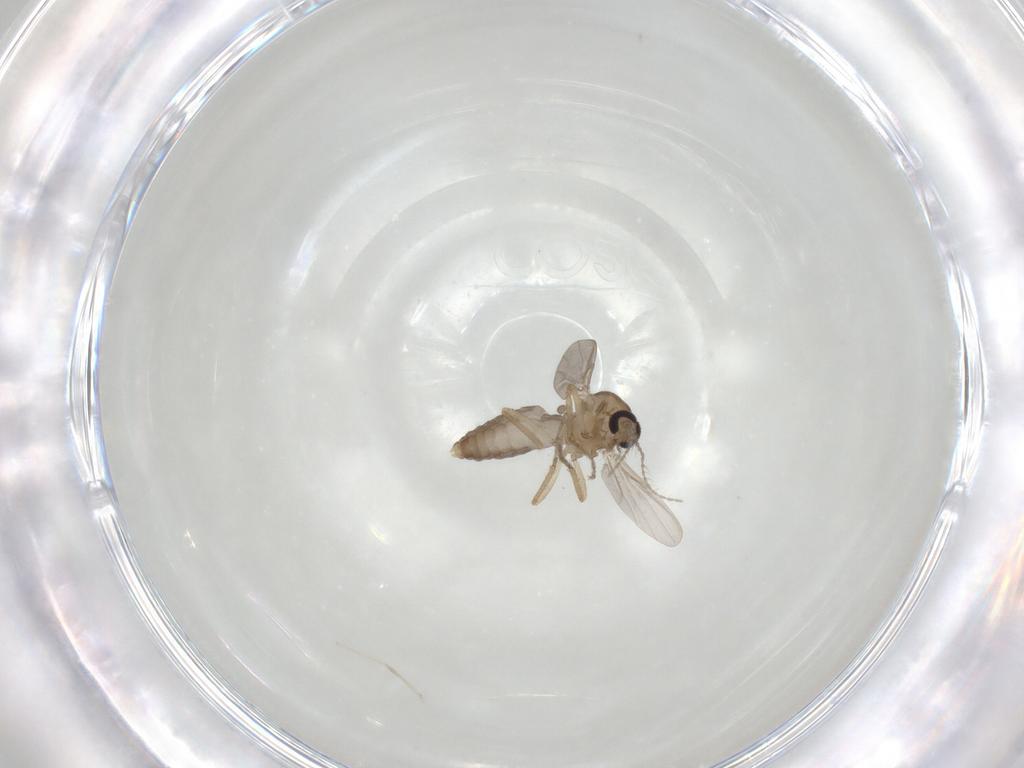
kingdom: Animalia
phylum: Arthropoda
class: Insecta
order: Diptera
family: Ceratopogonidae
